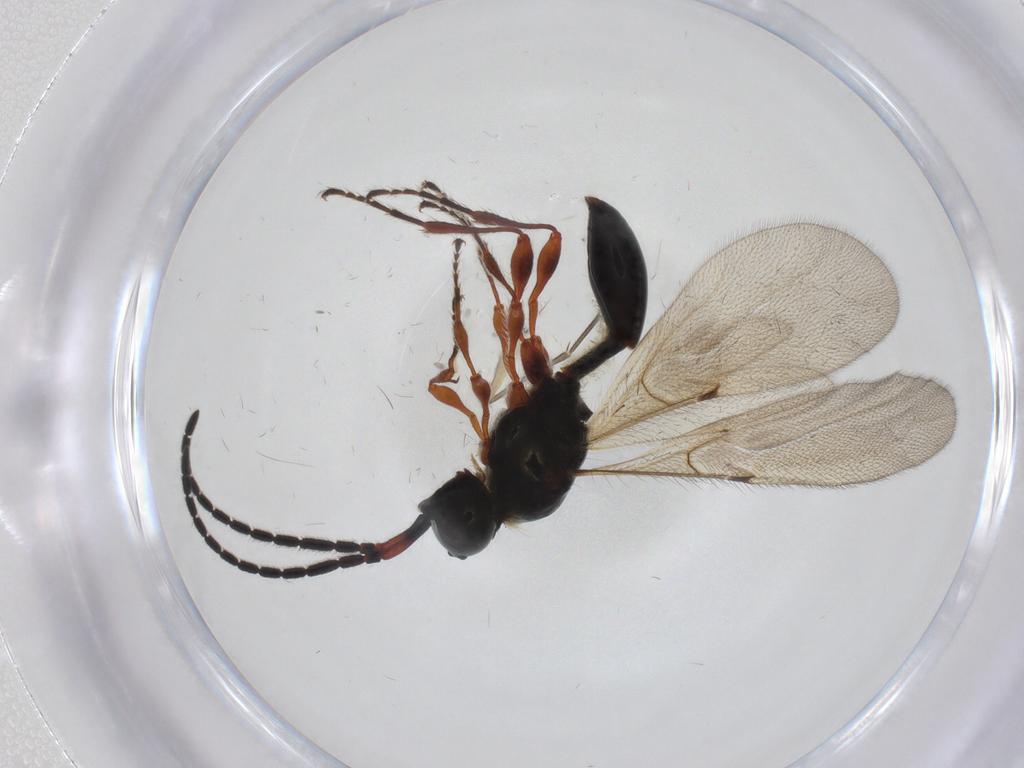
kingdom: Animalia
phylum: Arthropoda
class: Insecta
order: Hymenoptera
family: Diapriidae
